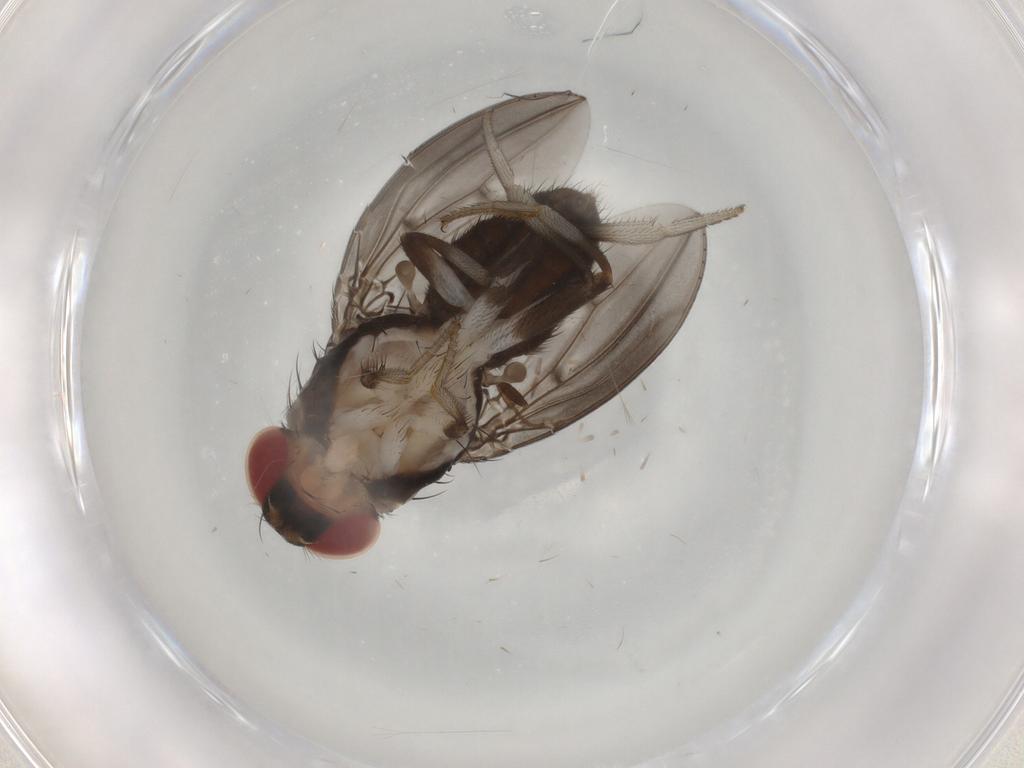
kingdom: Animalia
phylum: Arthropoda
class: Insecta
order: Diptera
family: Drosophilidae
